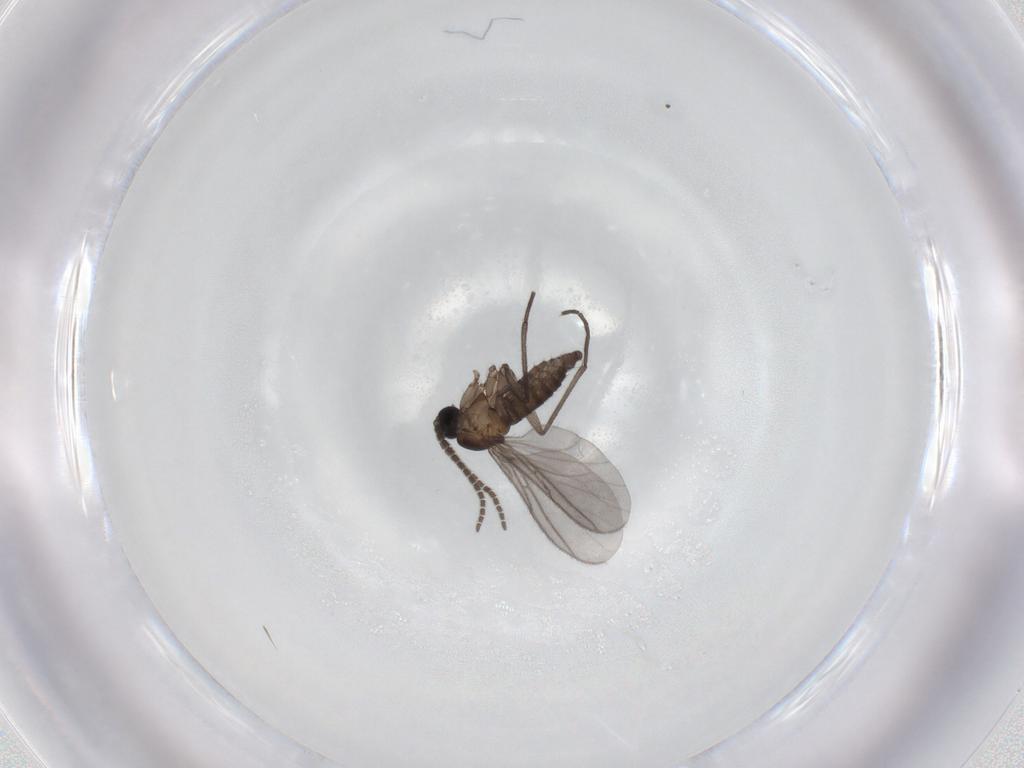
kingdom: Animalia
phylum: Arthropoda
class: Insecta
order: Diptera
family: Sciaridae
